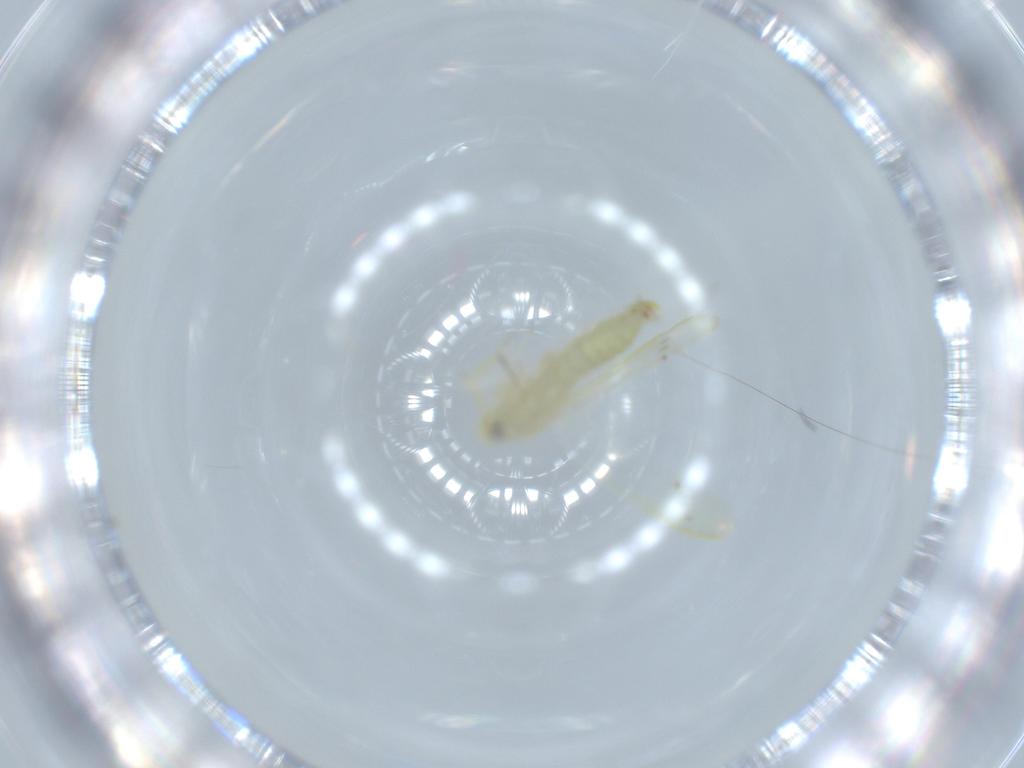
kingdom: Animalia
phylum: Arthropoda
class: Insecta
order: Hemiptera
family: Cicadellidae
